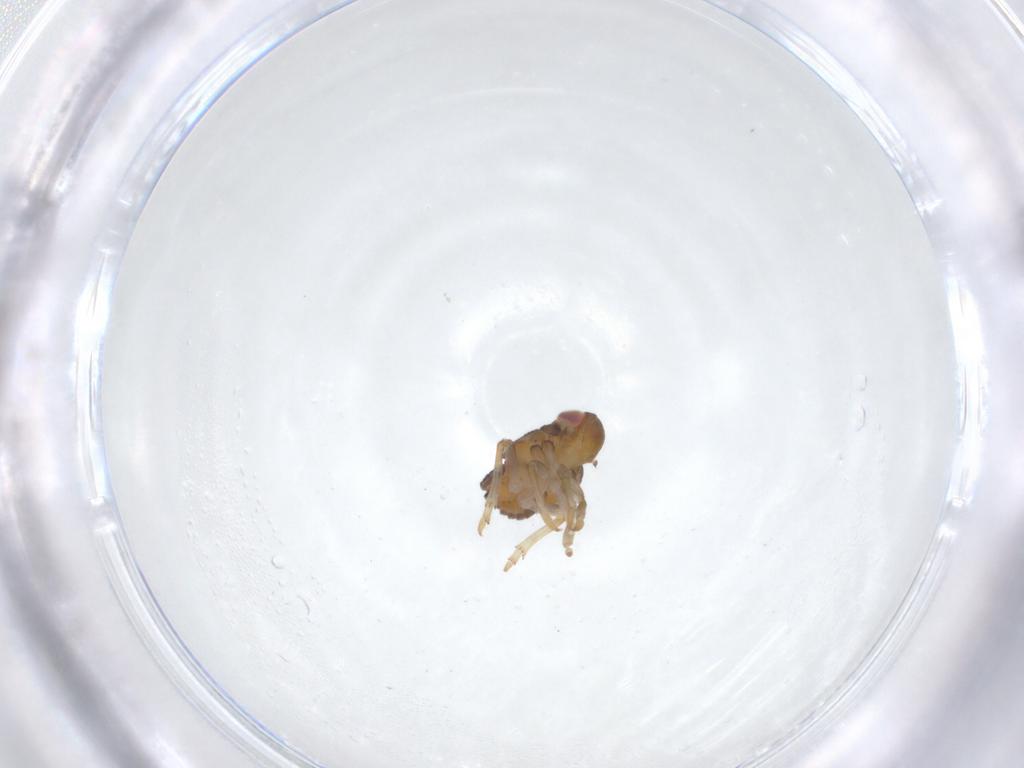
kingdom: Animalia
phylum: Arthropoda
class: Insecta
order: Hemiptera
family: Issidae
